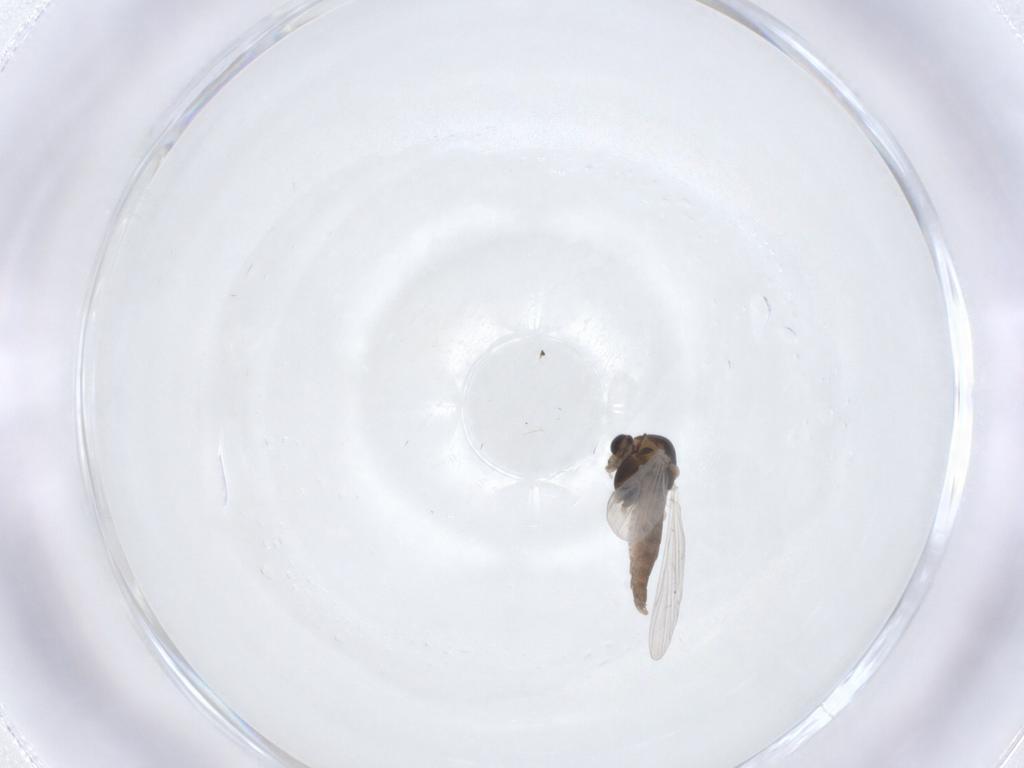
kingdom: Animalia
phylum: Arthropoda
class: Insecta
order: Diptera
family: Chironomidae
